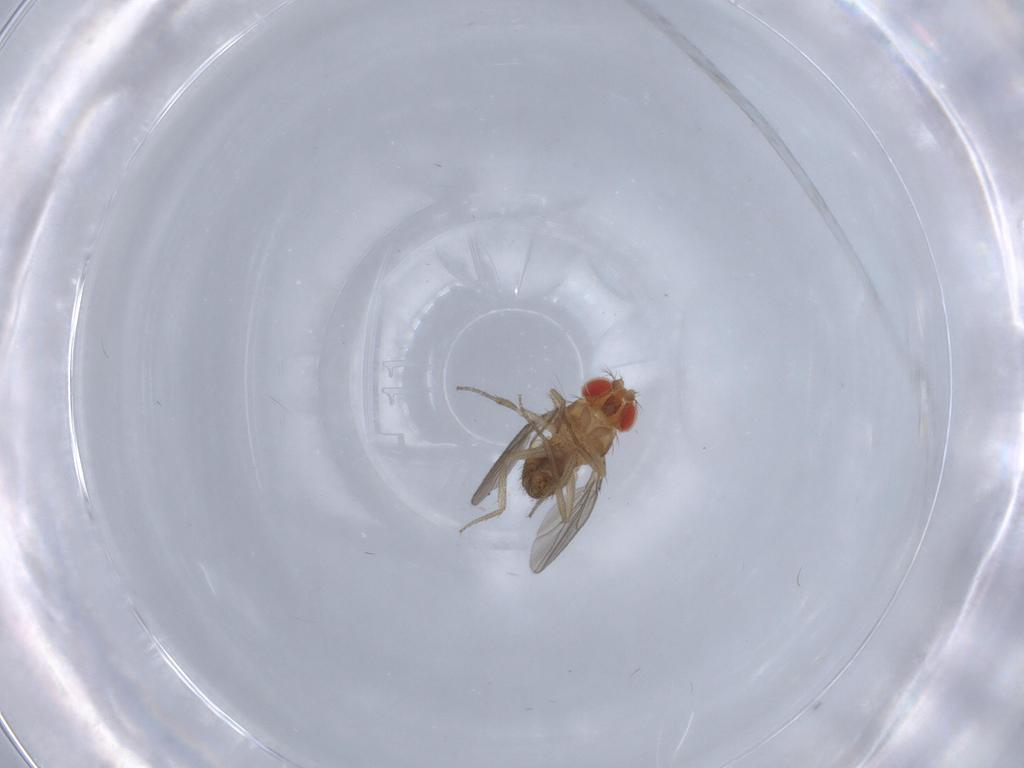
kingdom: Animalia
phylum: Arthropoda
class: Insecta
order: Diptera
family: Drosophilidae
